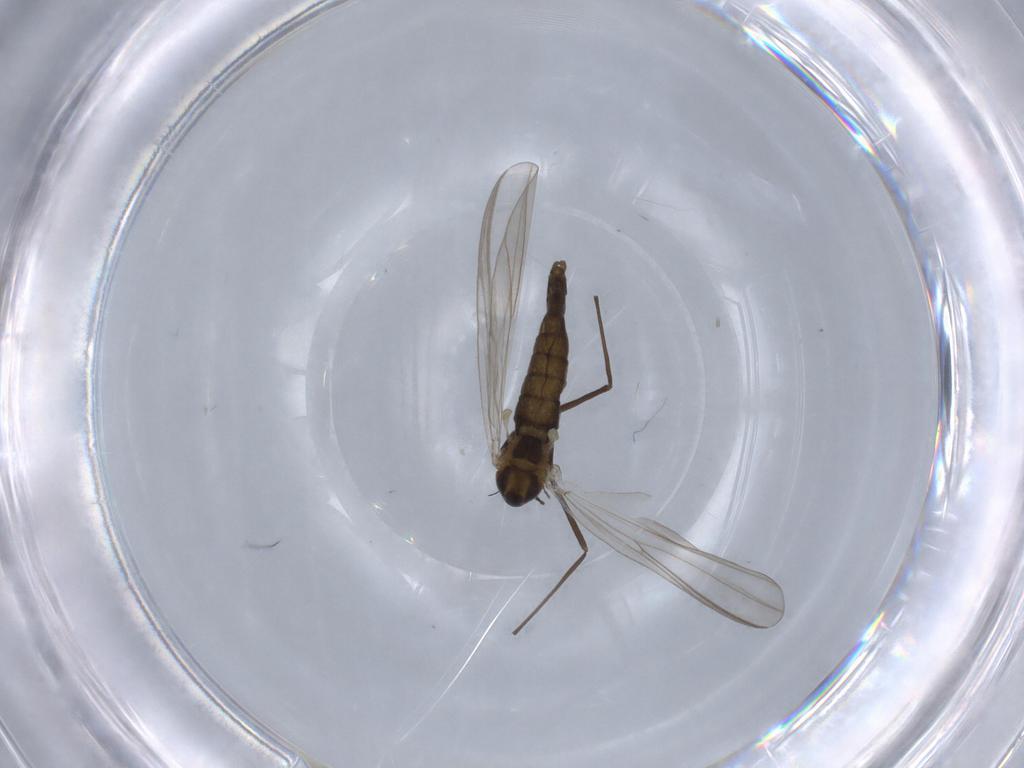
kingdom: Animalia
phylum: Arthropoda
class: Insecta
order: Diptera
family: Chironomidae
